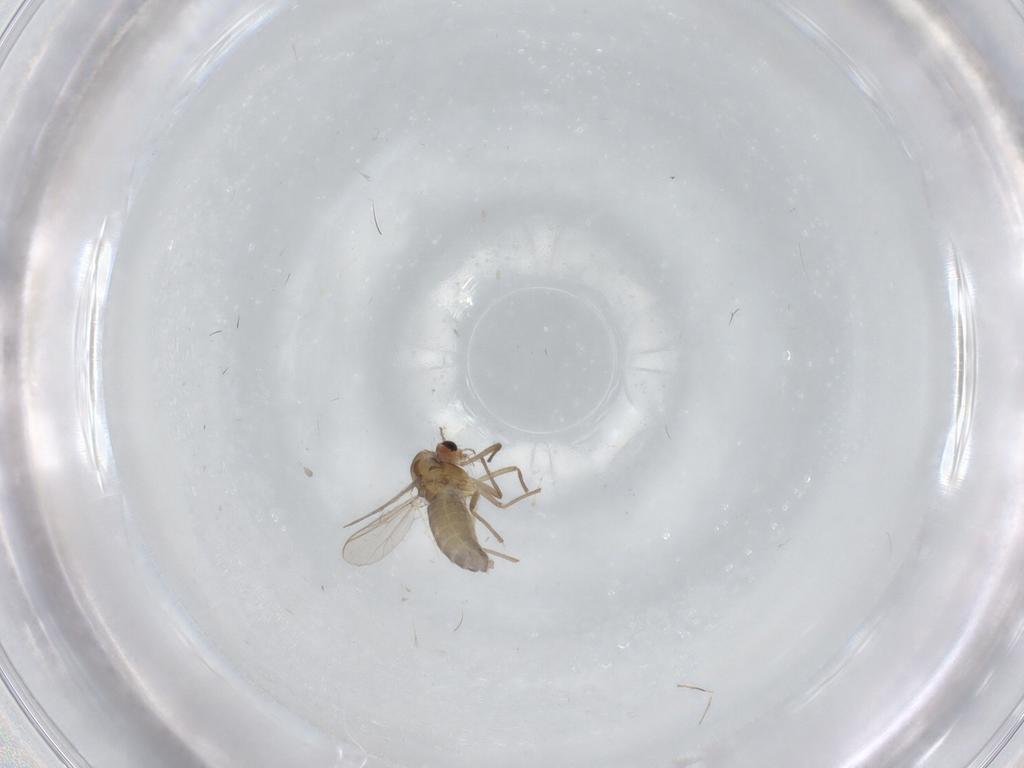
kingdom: Animalia
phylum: Arthropoda
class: Insecta
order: Diptera
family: Chironomidae
